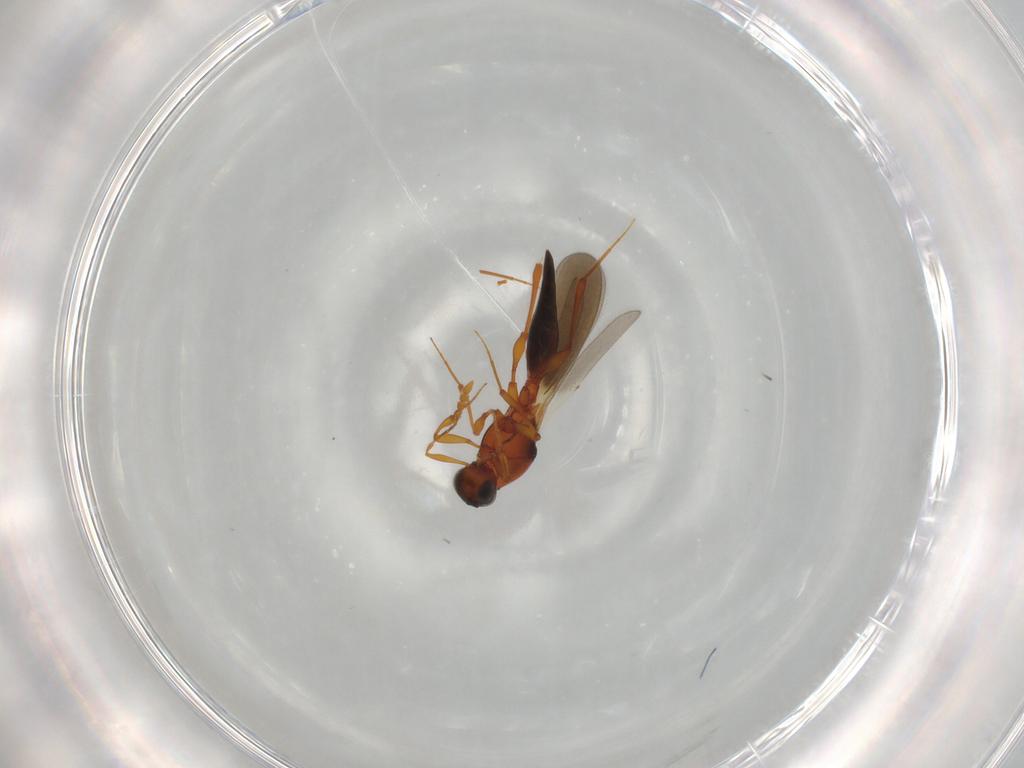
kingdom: Animalia
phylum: Arthropoda
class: Insecta
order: Hymenoptera
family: Platygastridae
